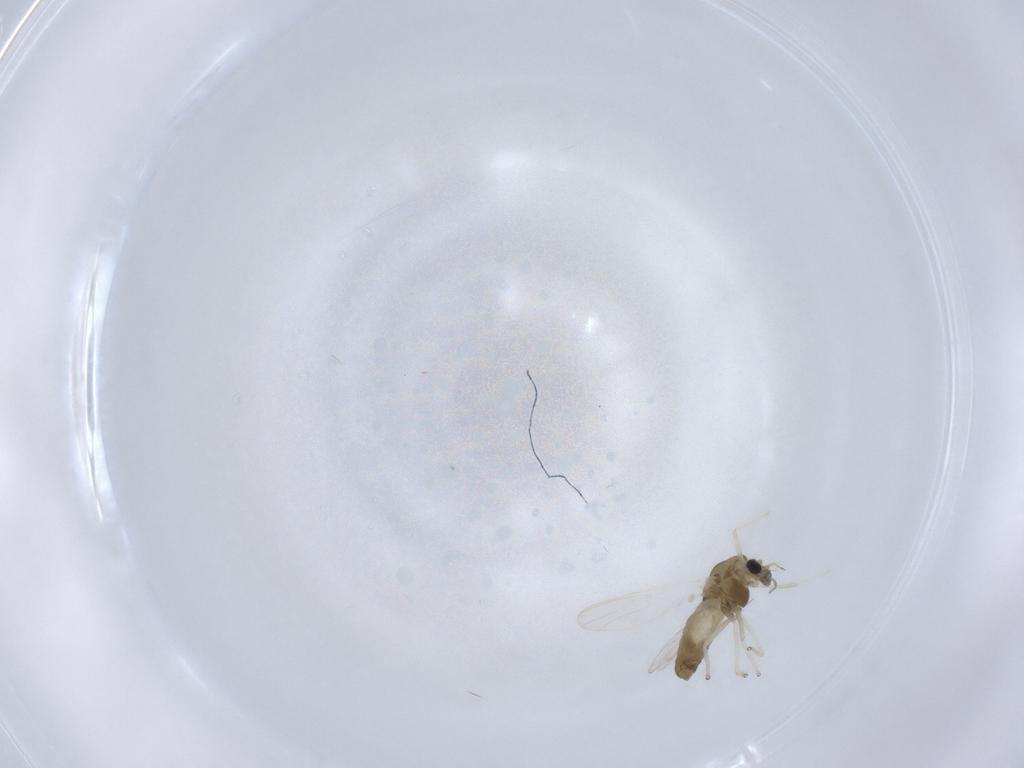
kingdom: Animalia
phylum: Arthropoda
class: Insecta
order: Diptera
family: Chironomidae
